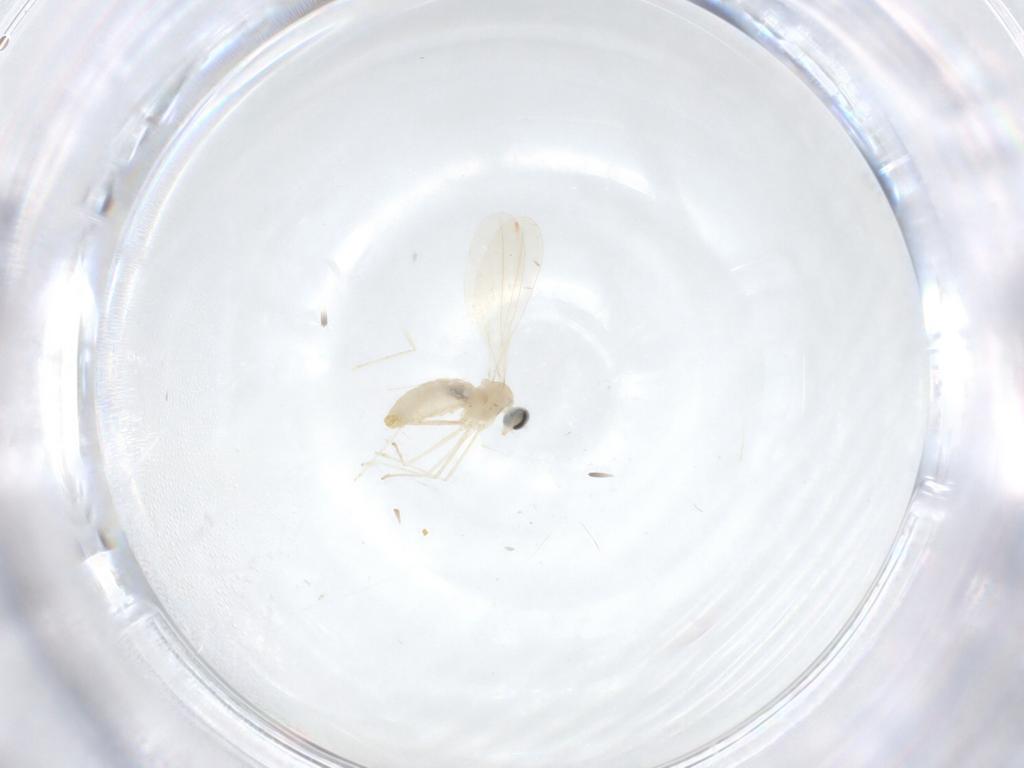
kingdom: Animalia
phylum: Arthropoda
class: Insecta
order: Diptera
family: Cecidomyiidae
